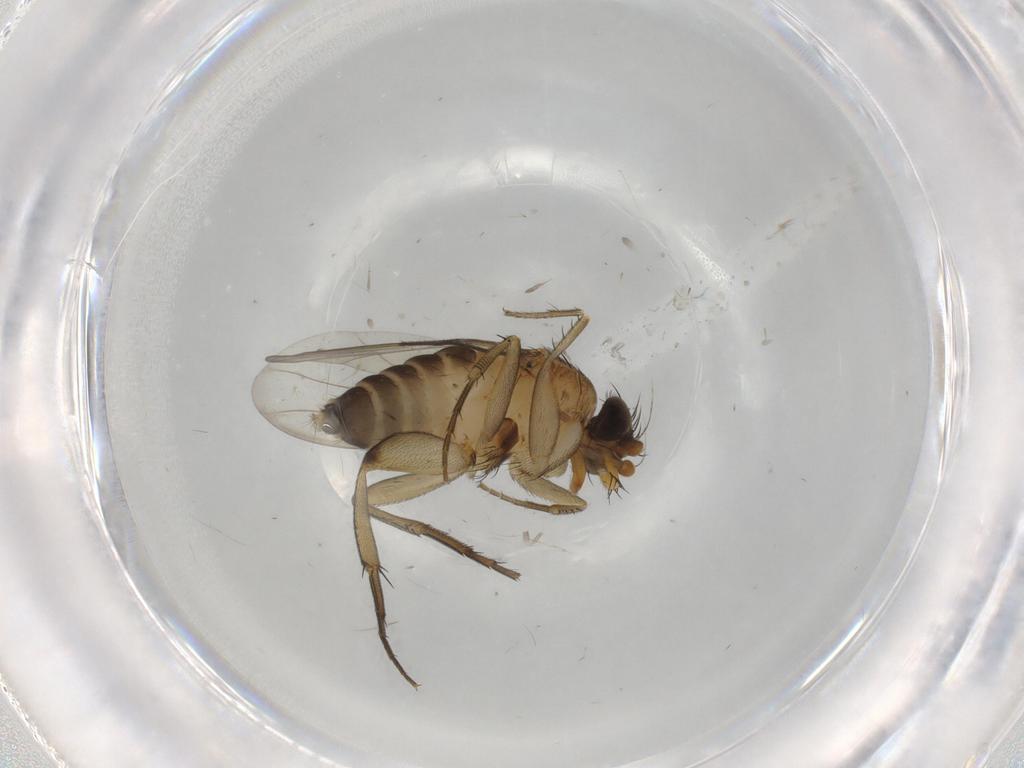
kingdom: Animalia
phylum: Arthropoda
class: Insecta
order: Diptera
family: Phoridae
